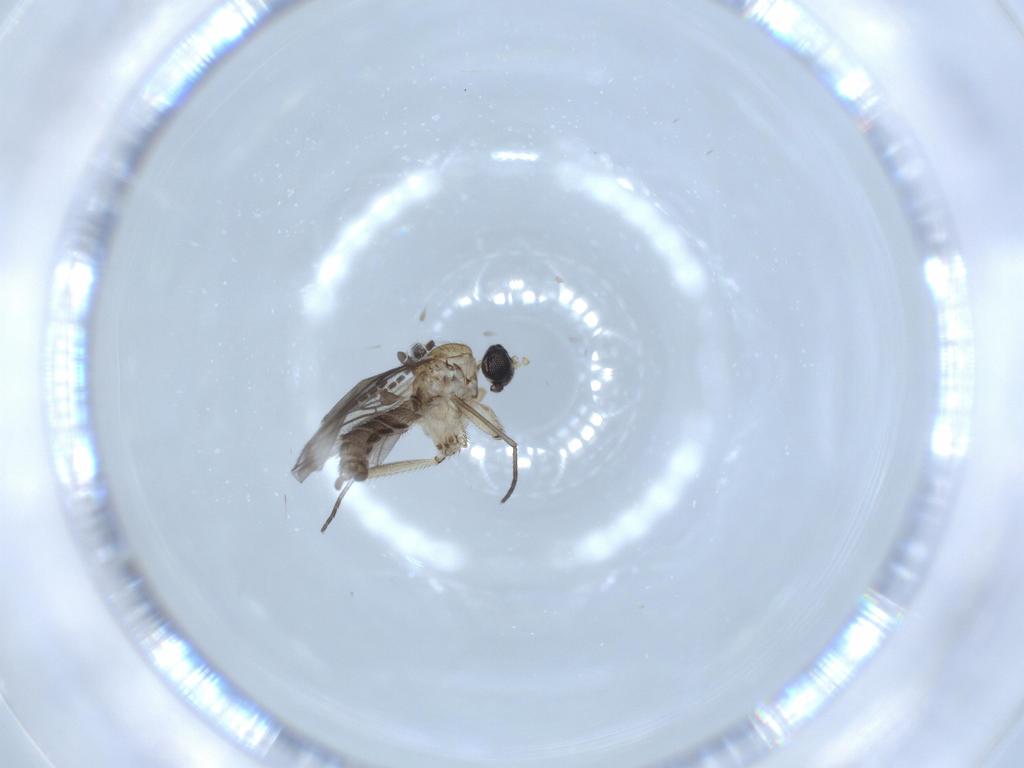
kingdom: Animalia
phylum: Arthropoda
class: Insecta
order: Diptera
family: Sciaridae
